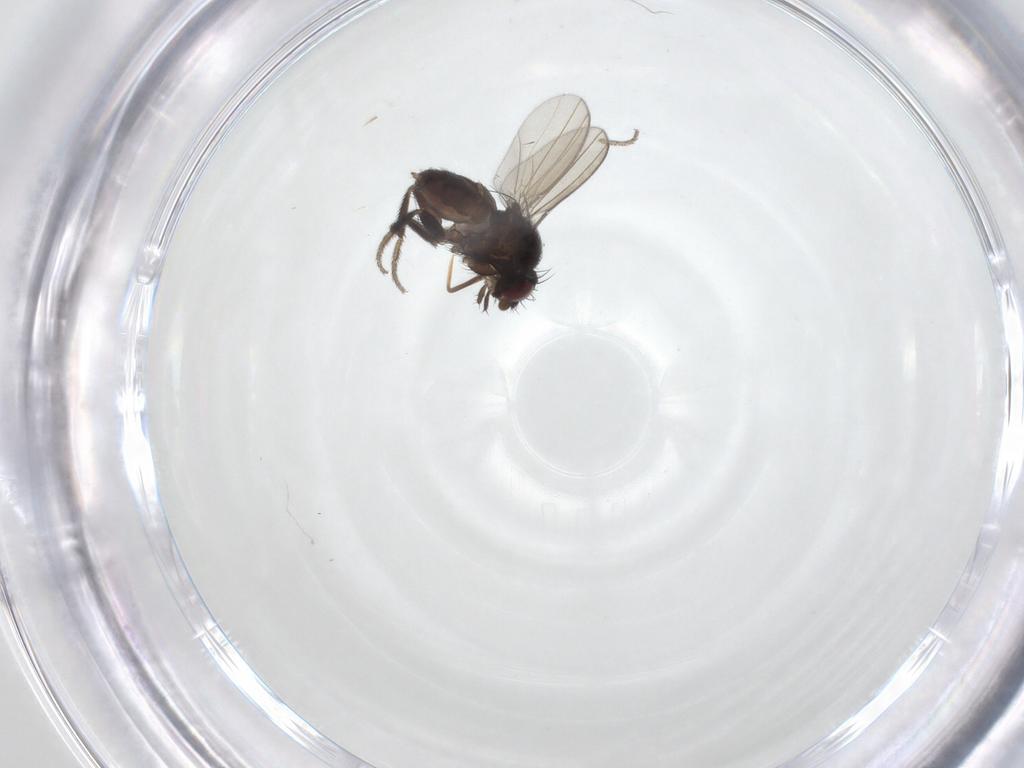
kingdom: Animalia
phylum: Arthropoda
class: Insecta
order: Diptera
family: Milichiidae
